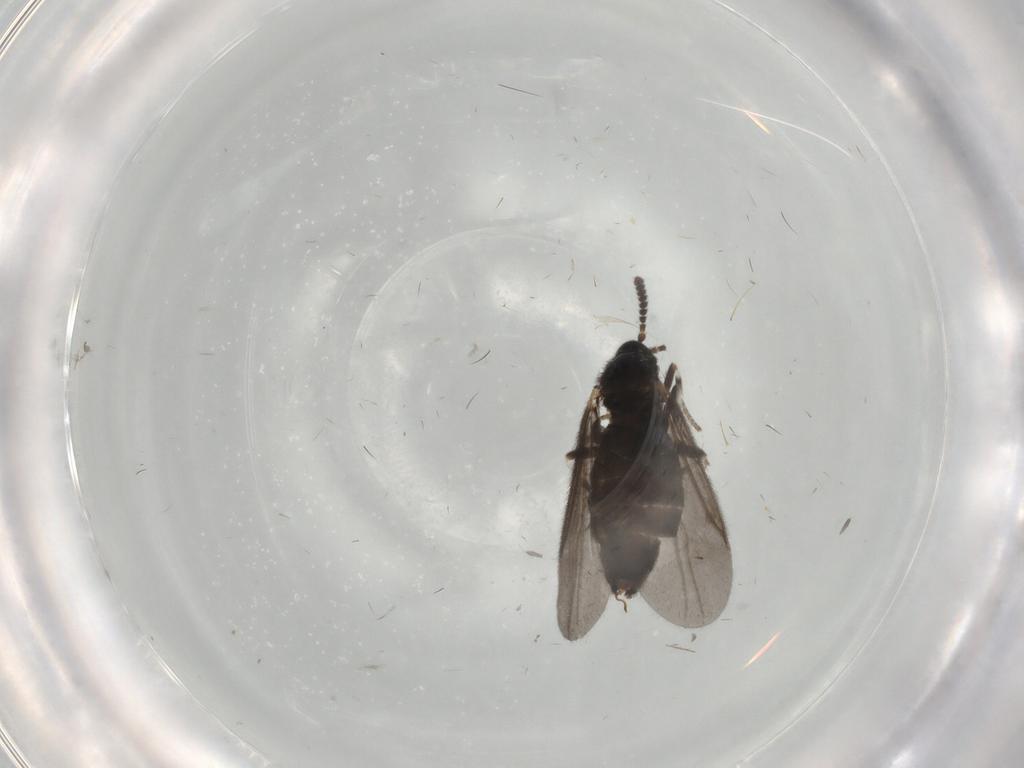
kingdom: Animalia
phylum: Arthropoda
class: Insecta
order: Diptera
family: Scatopsidae
